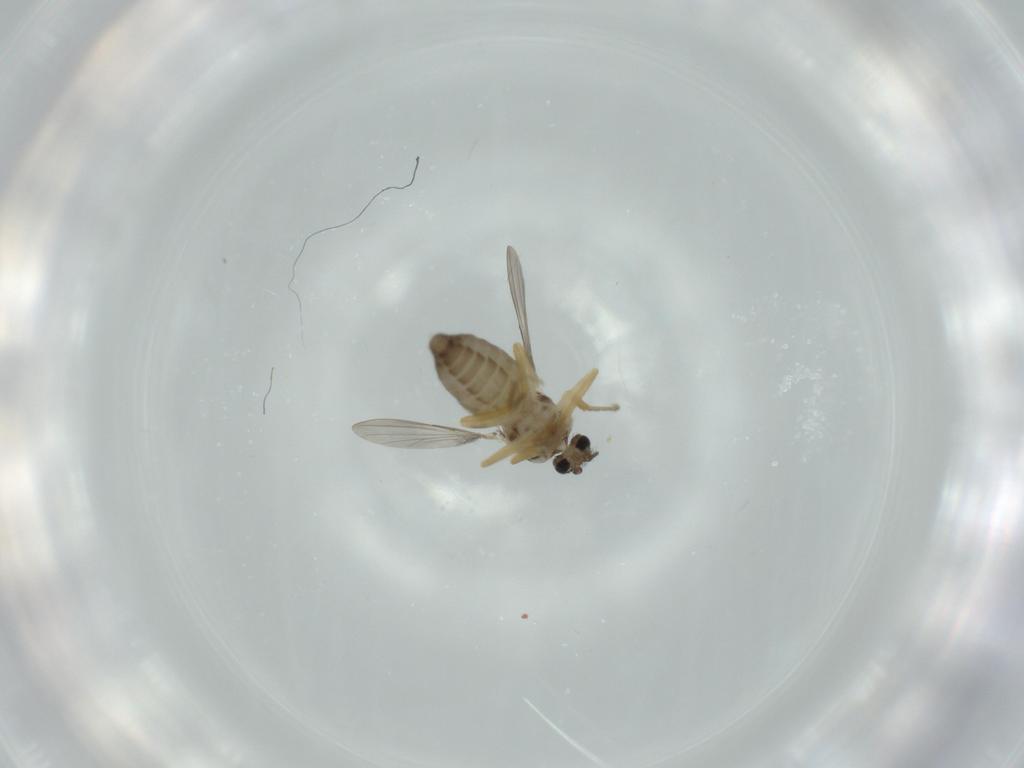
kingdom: Animalia
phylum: Arthropoda
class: Insecta
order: Diptera
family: Ceratopogonidae
